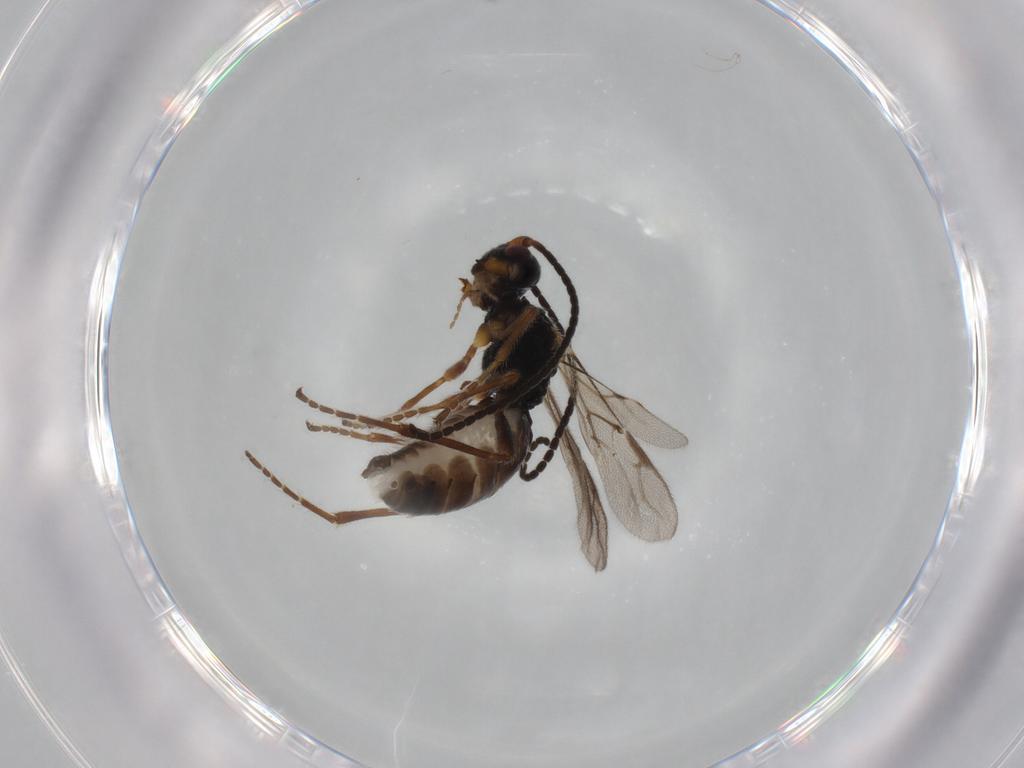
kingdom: Animalia
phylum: Arthropoda
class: Insecta
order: Hymenoptera
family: Braconidae
